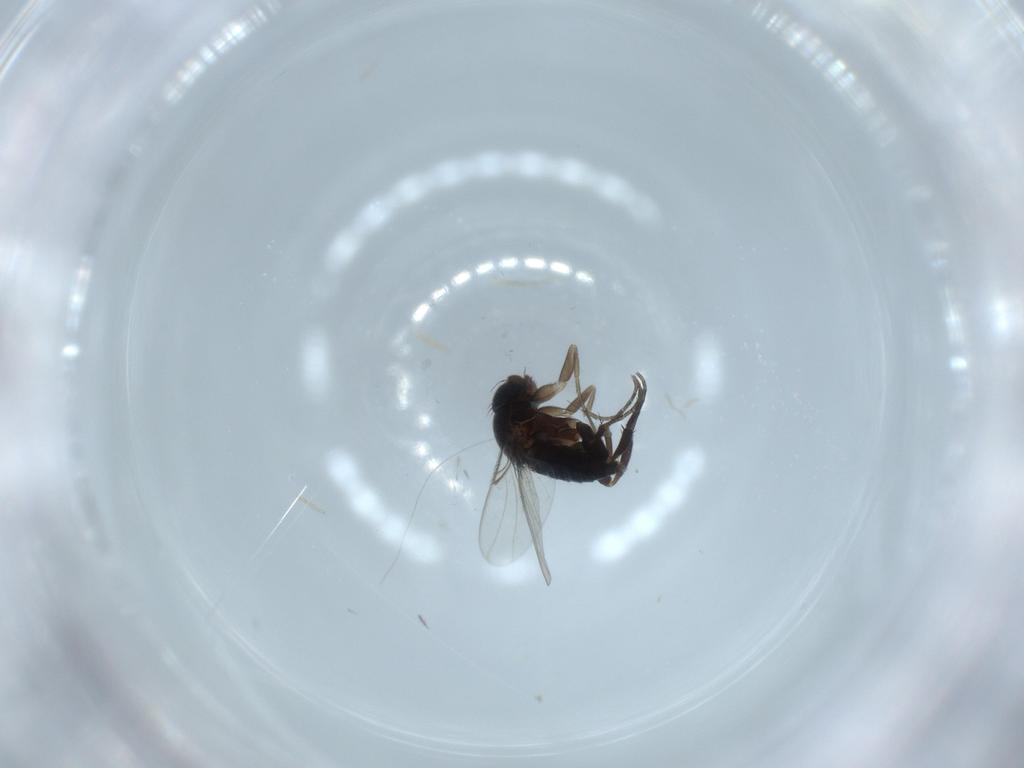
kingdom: Animalia
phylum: Arthropoda
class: Insecta
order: Diptera
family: Phoridae
